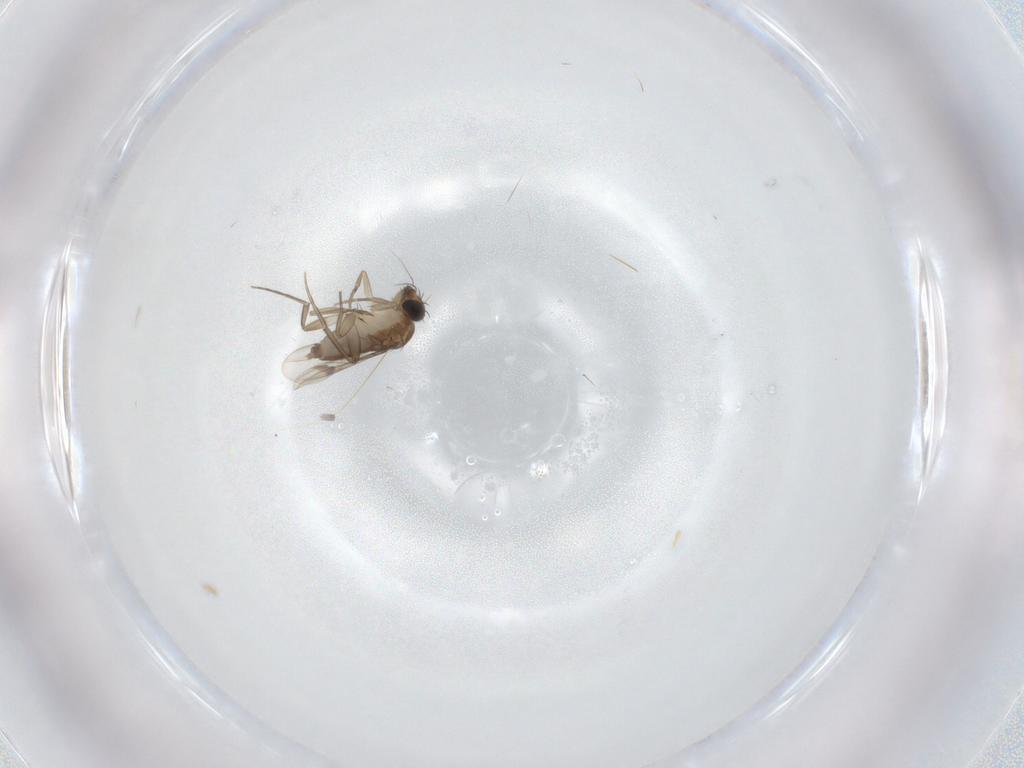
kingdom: Animalia
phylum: Arthropoda
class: Insecta
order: Diptera
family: Phoridae
